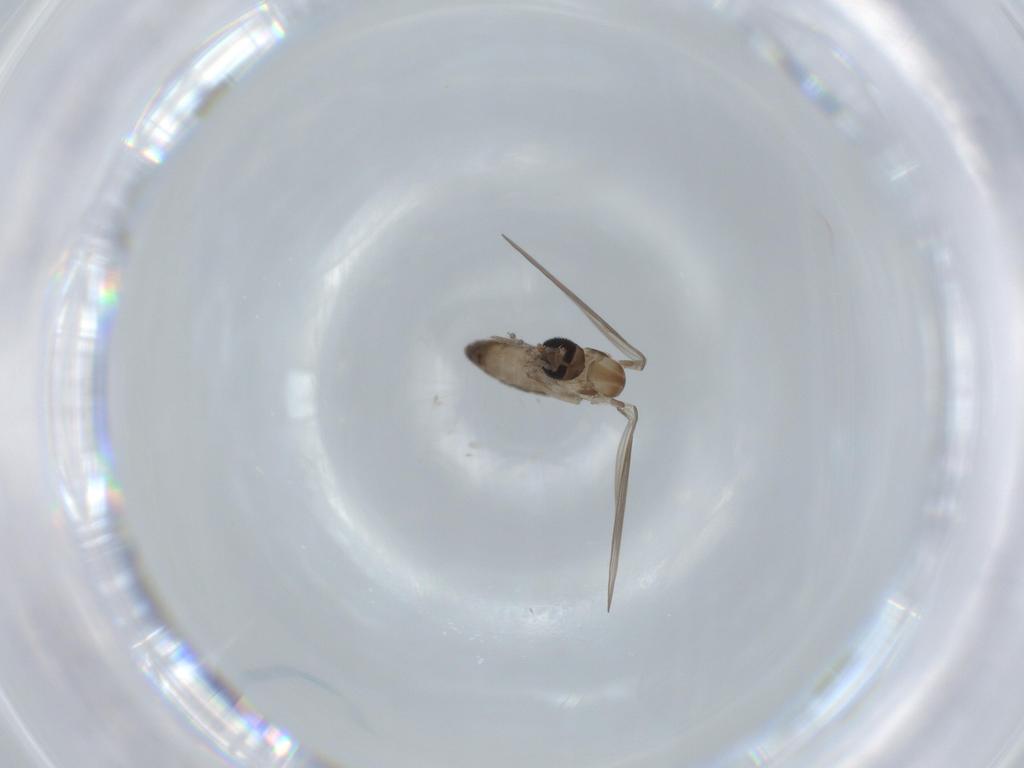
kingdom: Animalia
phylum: Arthropoda
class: Insecta
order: Diptera
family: Psychodidae
